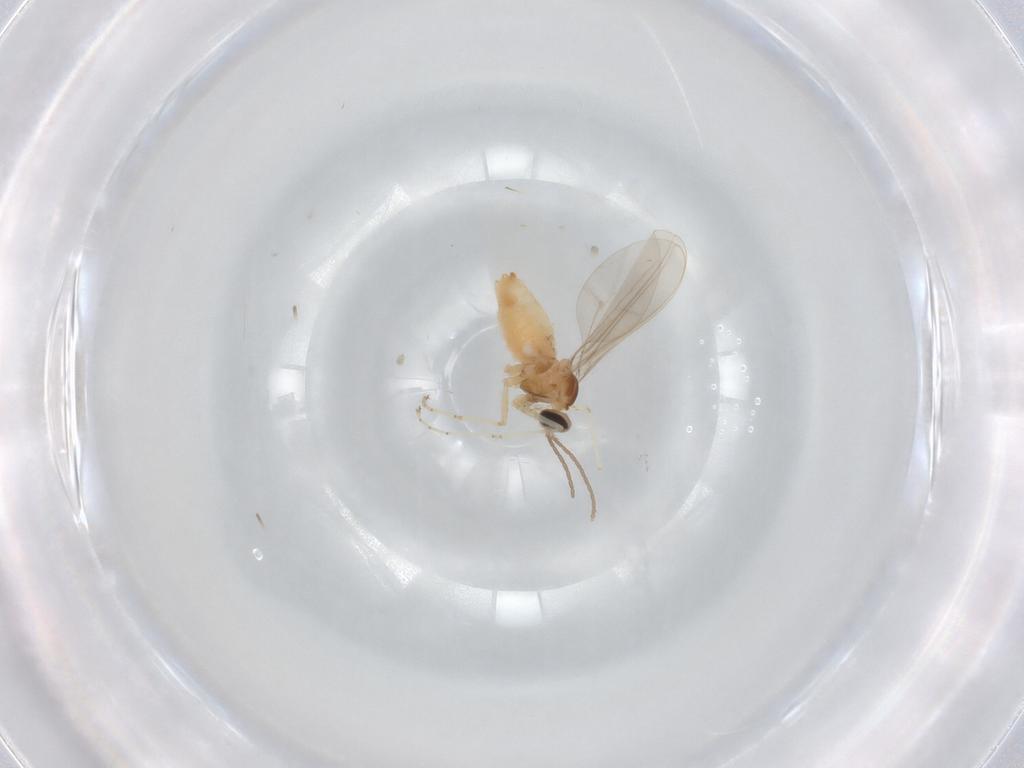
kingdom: Animalia
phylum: Arthropoda
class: Insecta
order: Diptera
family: Cecidomyiidae
